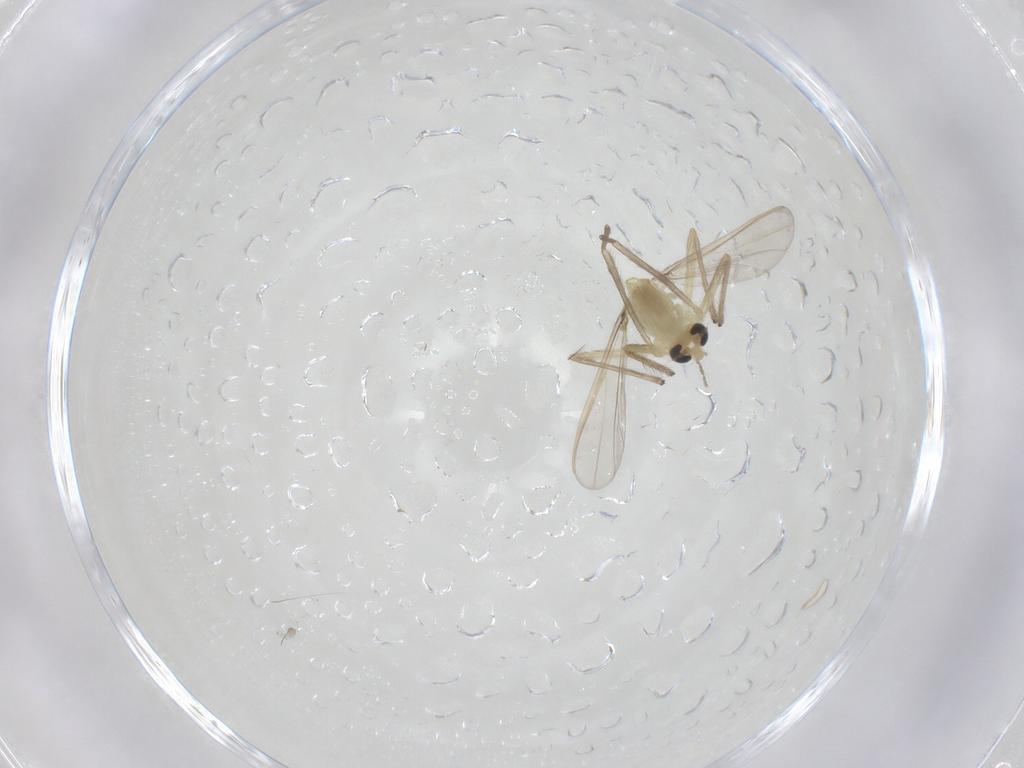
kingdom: Animalia
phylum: Arthropoda
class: Insecta
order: Diptera
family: Chironomidae
